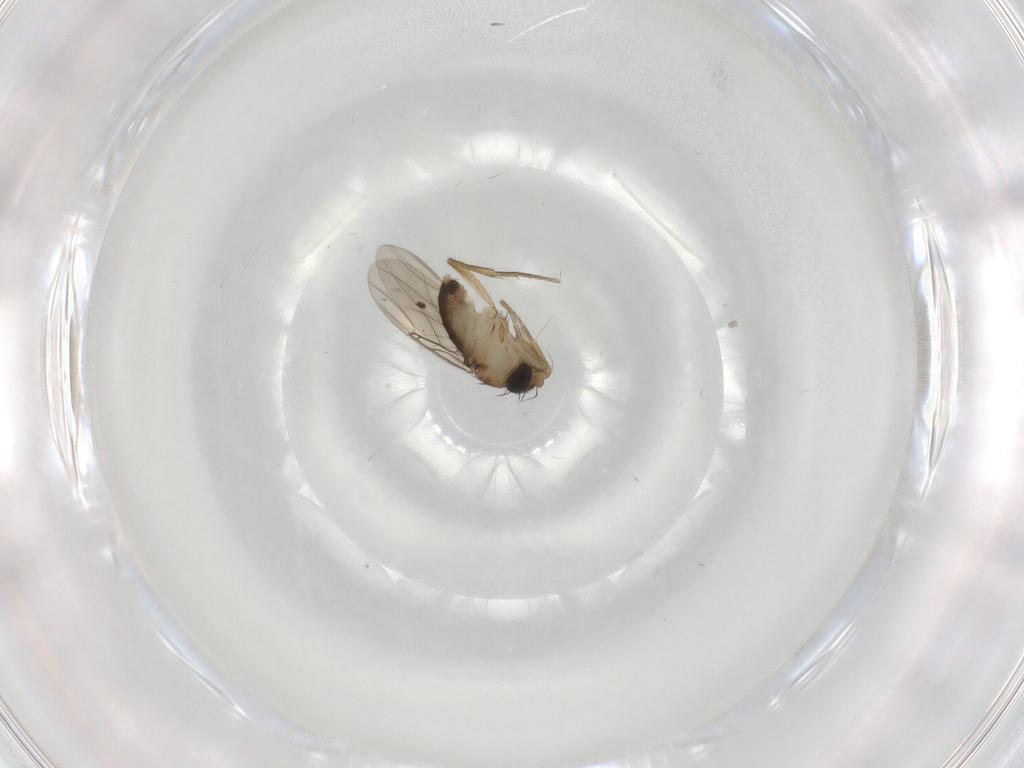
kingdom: Animalia
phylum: Arthropoda
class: Insecta
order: Diptera
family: Phoridae
